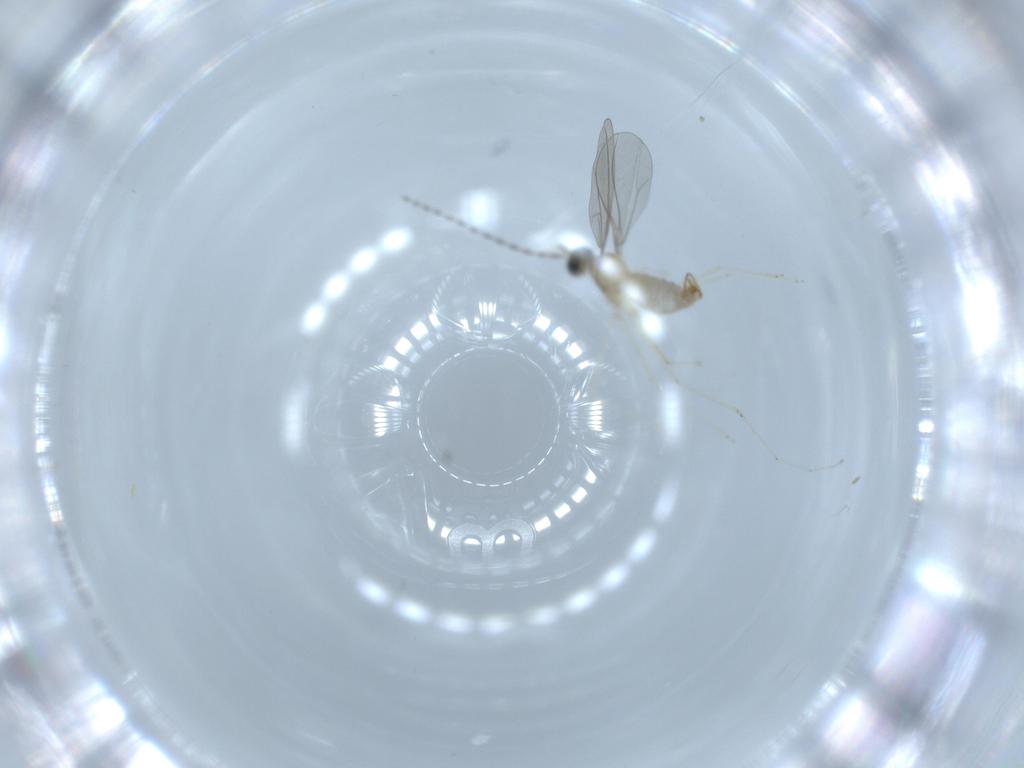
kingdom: Animalia
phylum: Arthropoda
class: Insecta
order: Diptera
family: Cecidomyiidae
